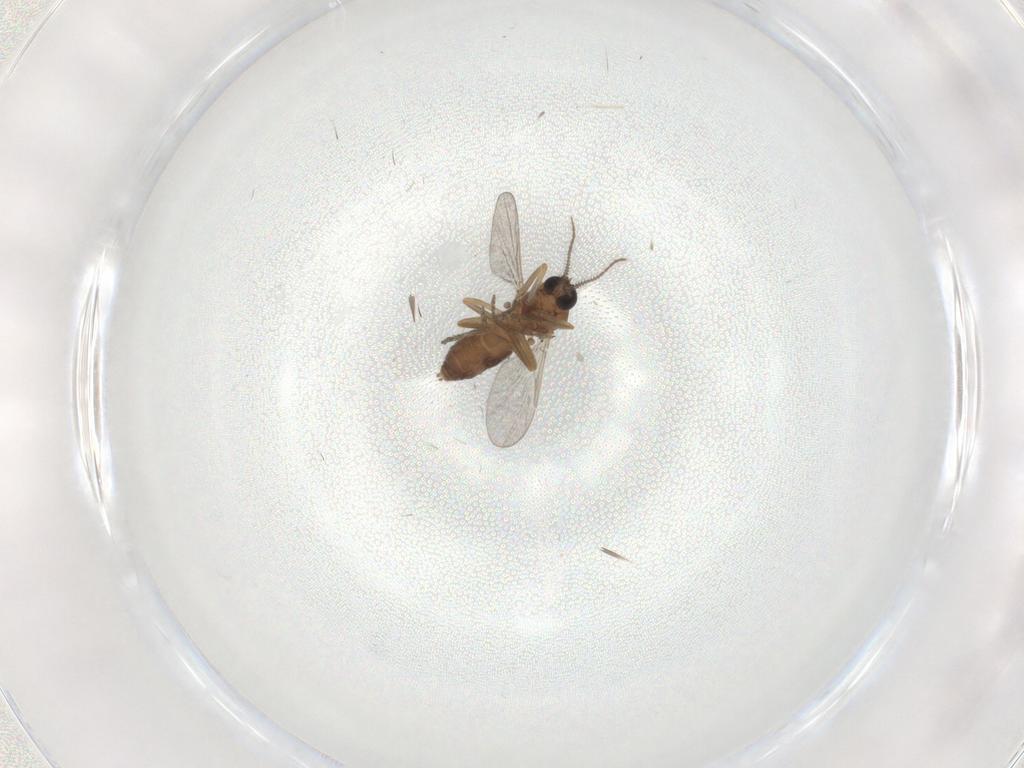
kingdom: Animalia
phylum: Arthropoda
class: Insecta
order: Diptera
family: Ceratopogonidae
